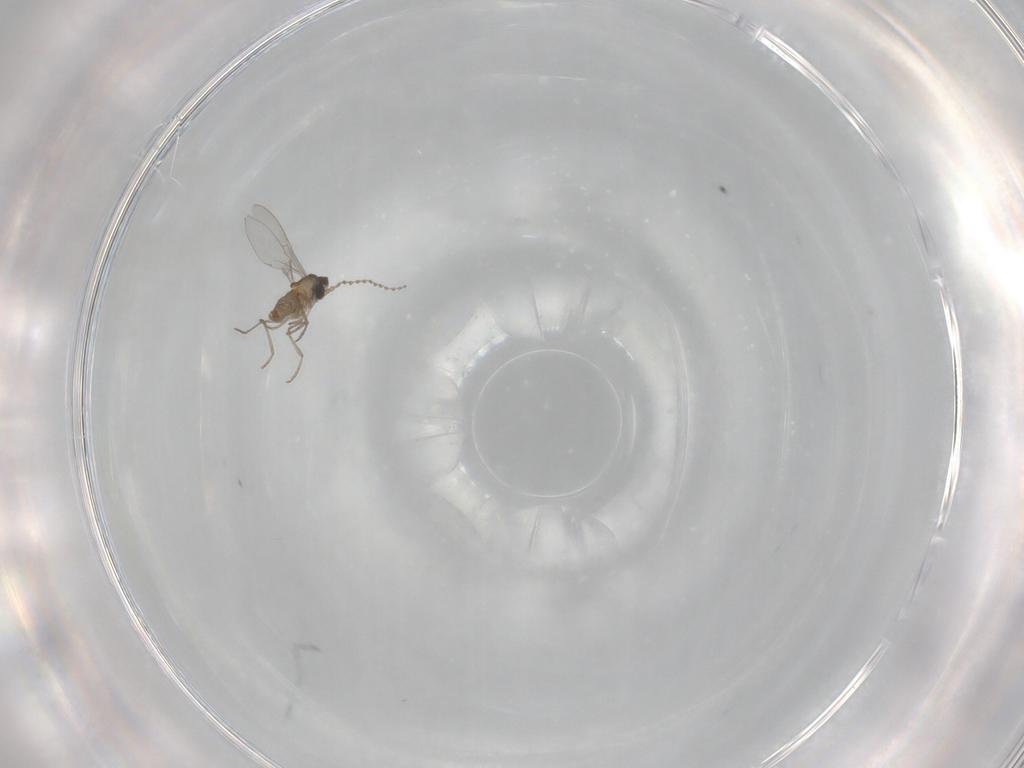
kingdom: Animalia
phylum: Arthropoda
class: Insecta
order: Diptera
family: Cecidomyiidae
